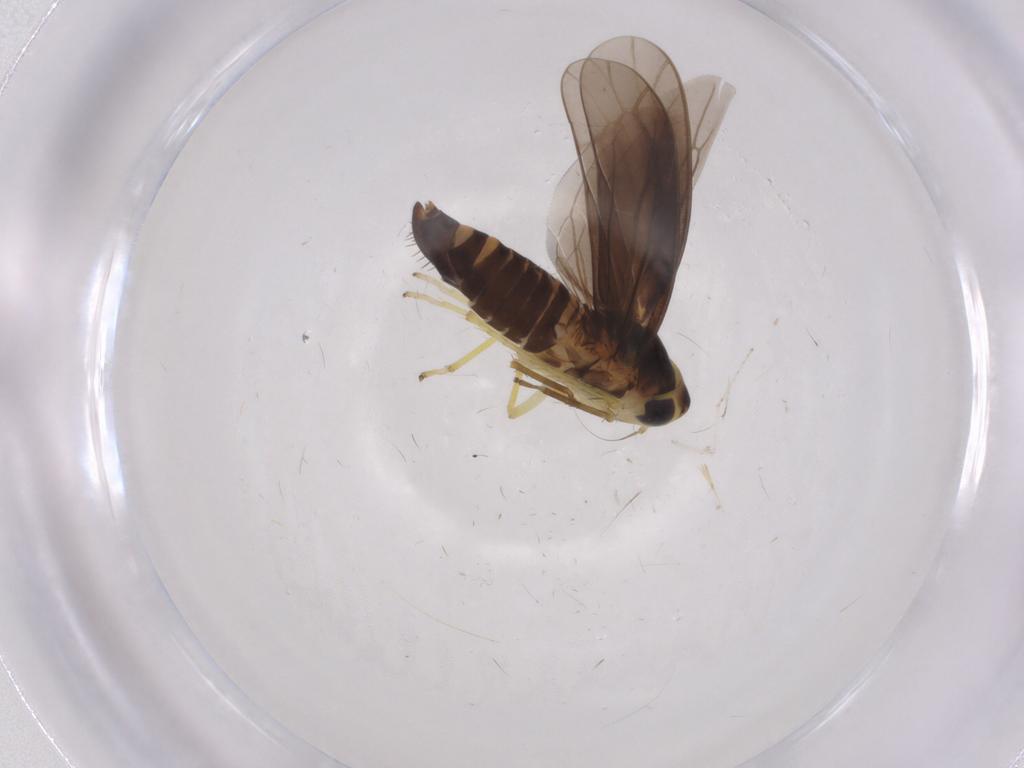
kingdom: Animalia
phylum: Arthropoda
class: Insecta
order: Hemiptera
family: Cicadellidae
